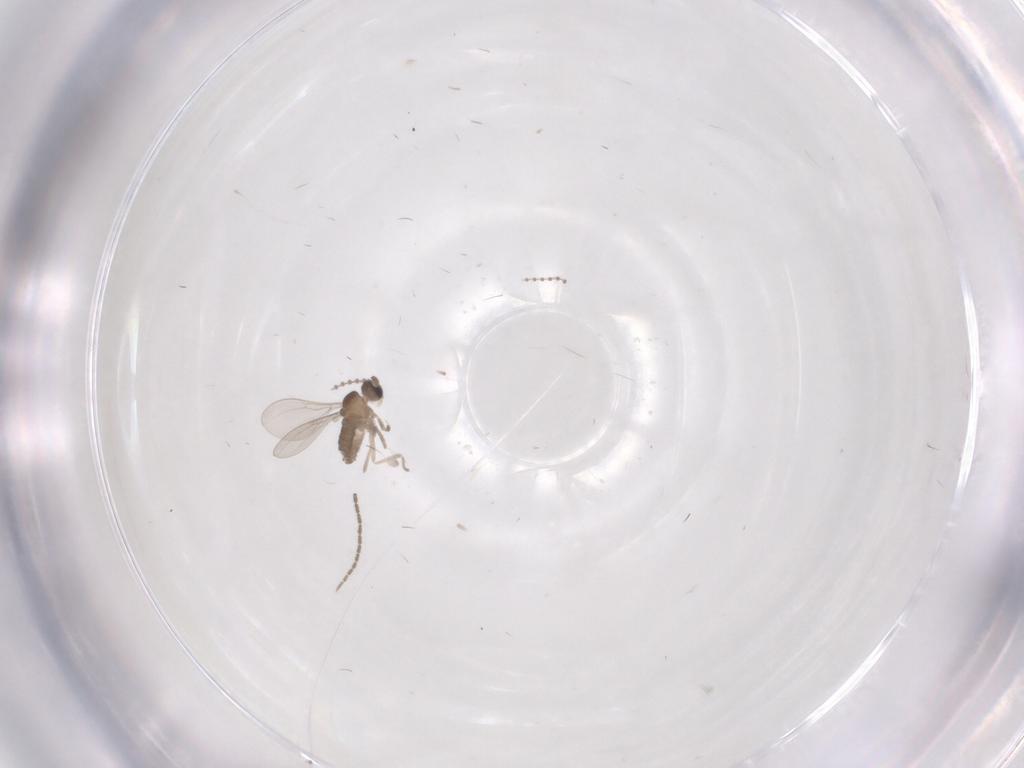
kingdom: Animalia
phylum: Arthropoda
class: Insecta
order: Diptera
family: Cecidomyiidae
